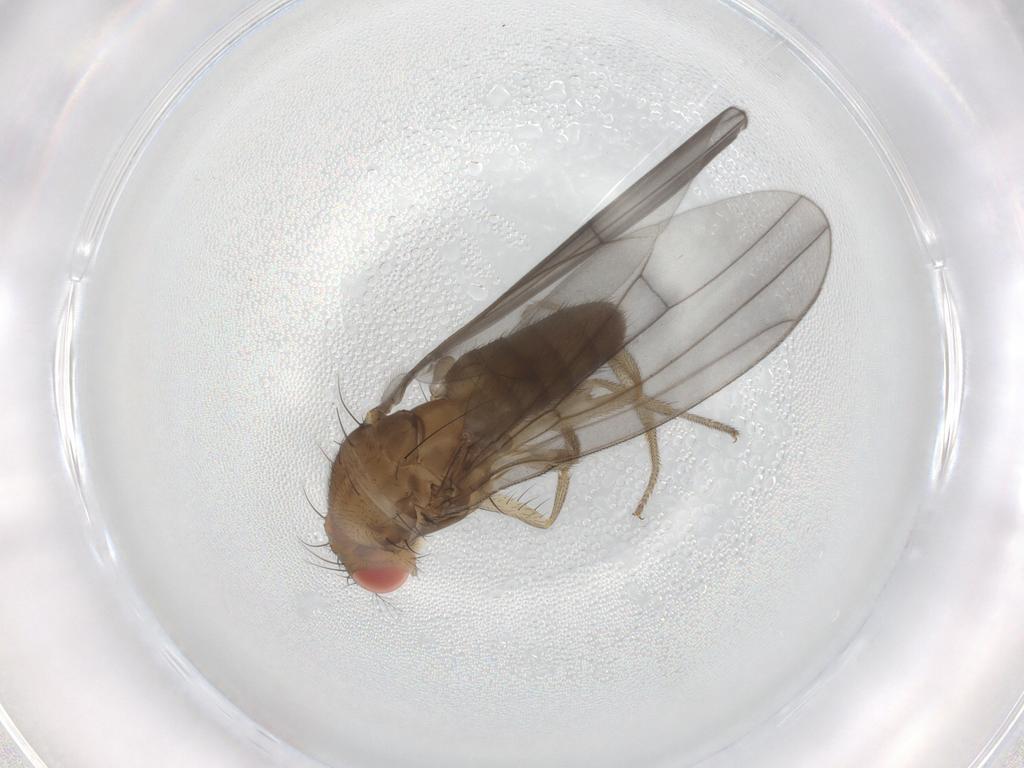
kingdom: Animalia
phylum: Arthropoda
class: Insecta
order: Diptera
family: Drosophilidae
